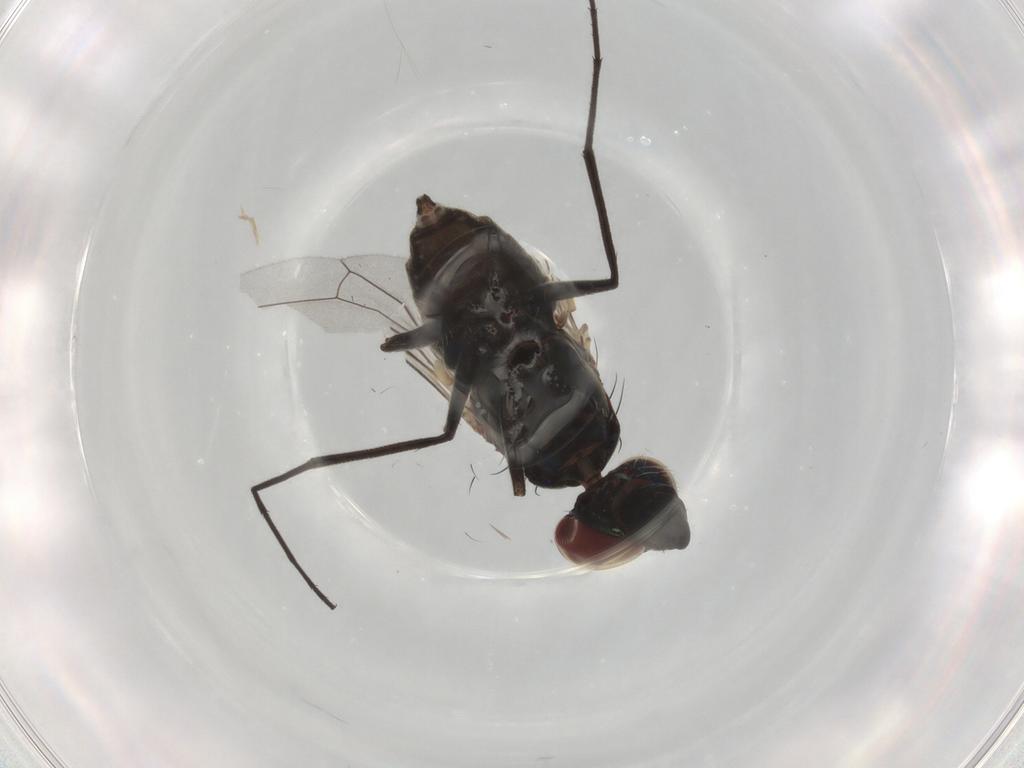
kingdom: Animalia
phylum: Arthropoda
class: Insecta
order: Diptera
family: Dolichopodidae
